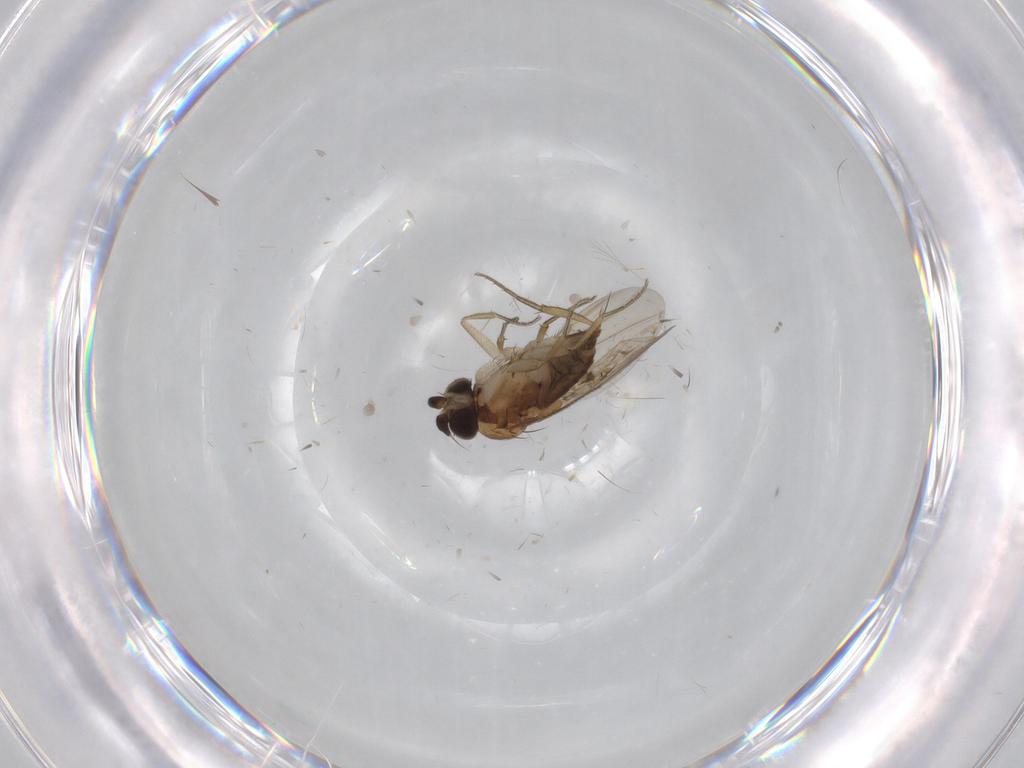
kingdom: Animalia
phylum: Arthropoda
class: Insecta
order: Diptera
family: Phoridae
